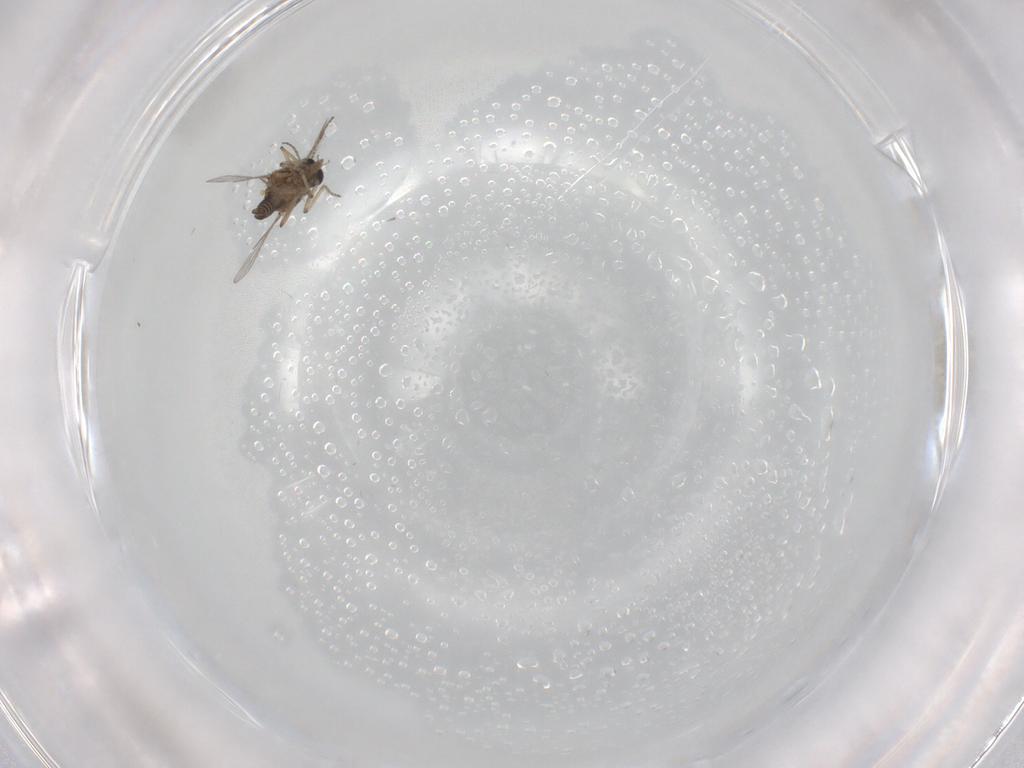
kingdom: Animalia
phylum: Arthropoda
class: Insecta
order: Diptera
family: Ceratopogonidae
